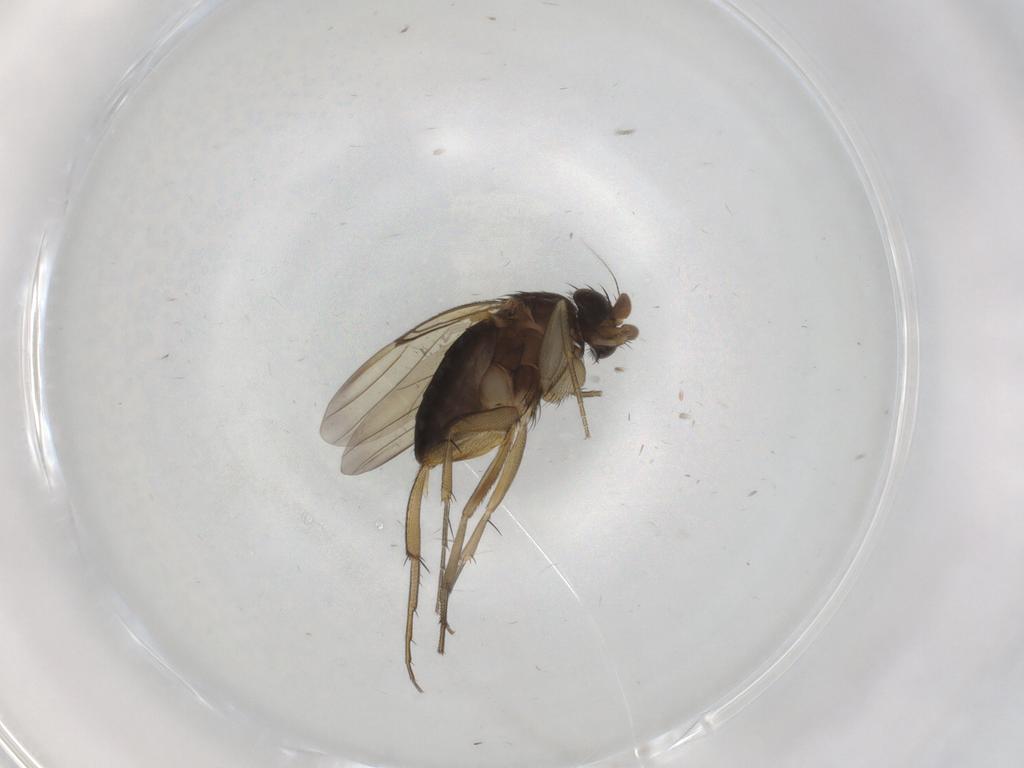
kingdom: Animalia
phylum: Arthropoda
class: Insecta
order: Diptera
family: Phoridae
